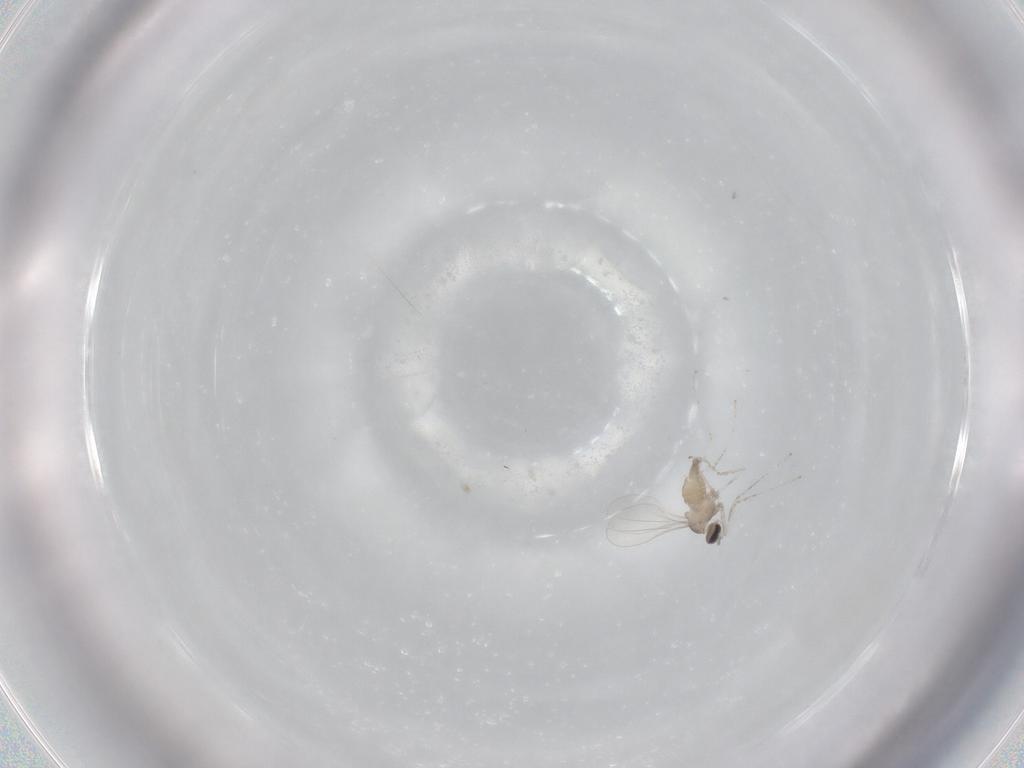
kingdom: Animalia
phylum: Arthropoda
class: Insecta
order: Diptera
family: Cecidomyiidae
